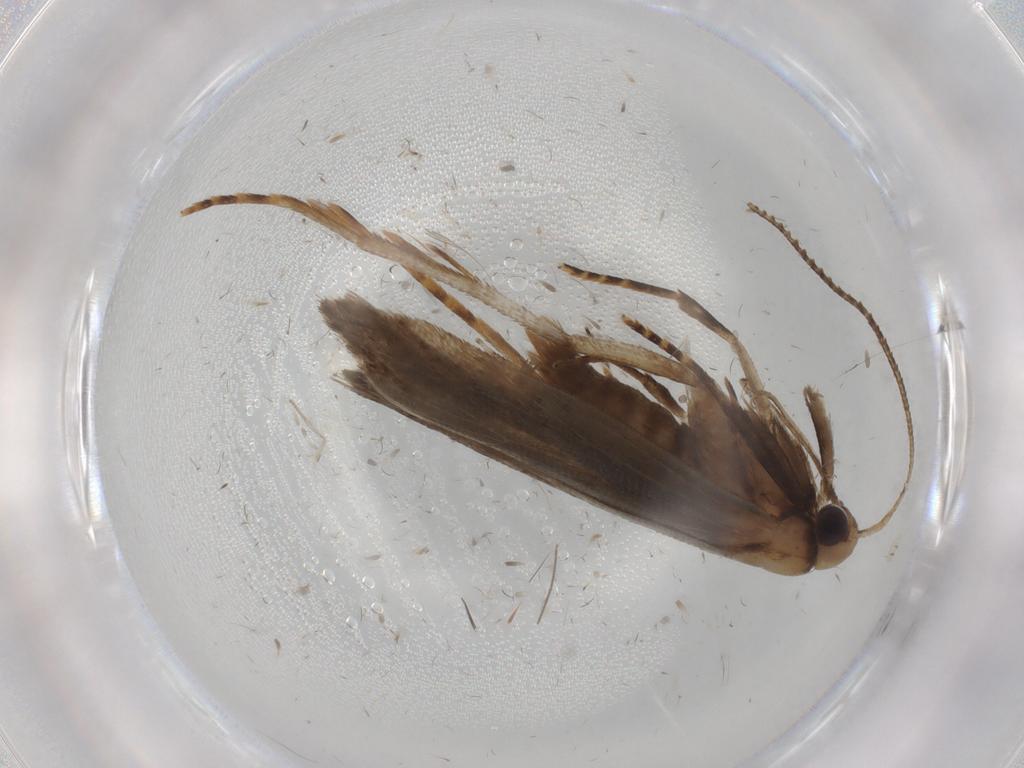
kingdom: Animalia
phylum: Arthropoda
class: Insecta
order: Lepidoptera
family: Gelechiidae
